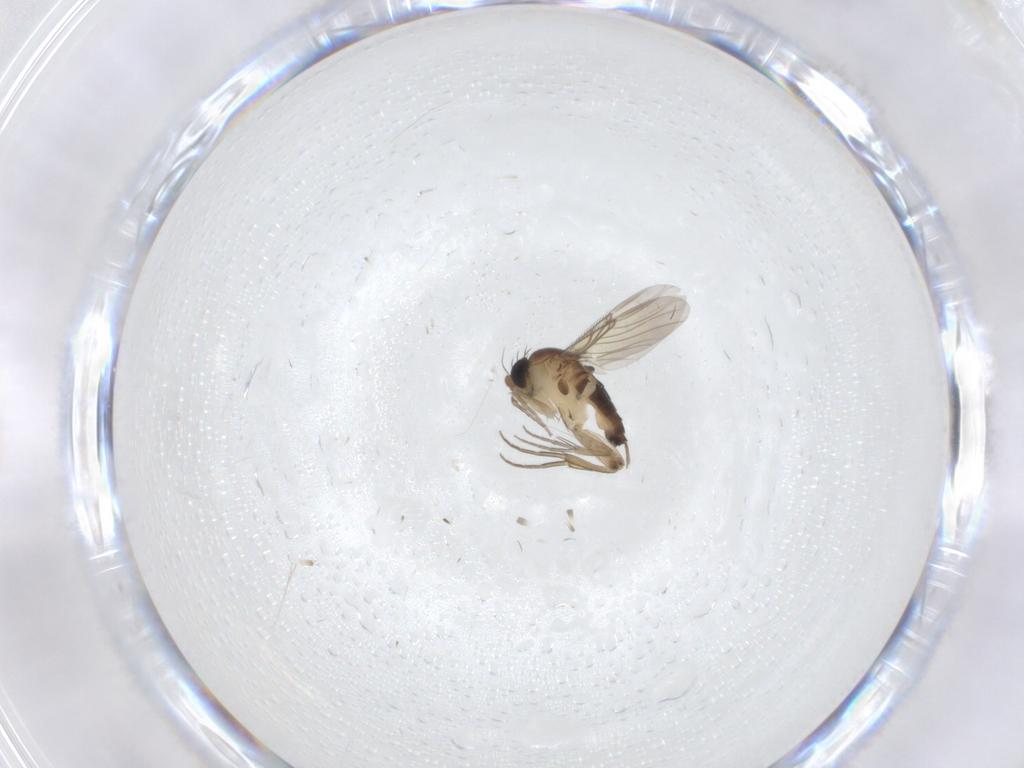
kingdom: Animalia
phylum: Arthropoda
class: Insecta
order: Diptera
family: Phoridae
